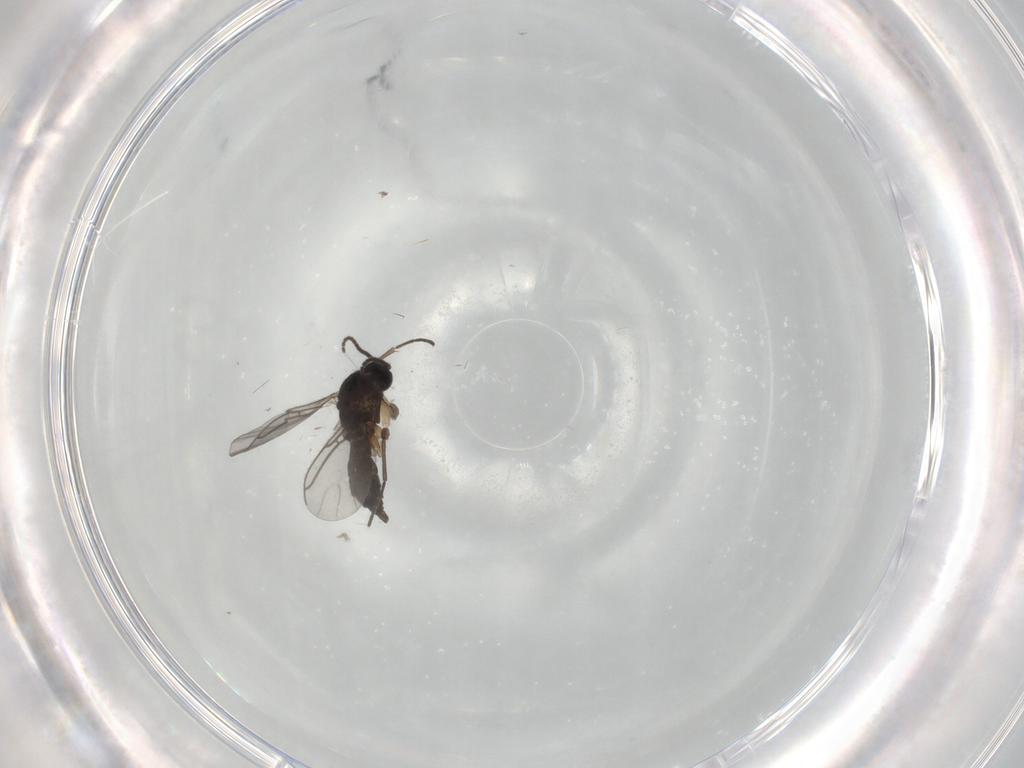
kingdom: Animalia
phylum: Arthropoda
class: Insecta
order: Diptera
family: Sciaridae
